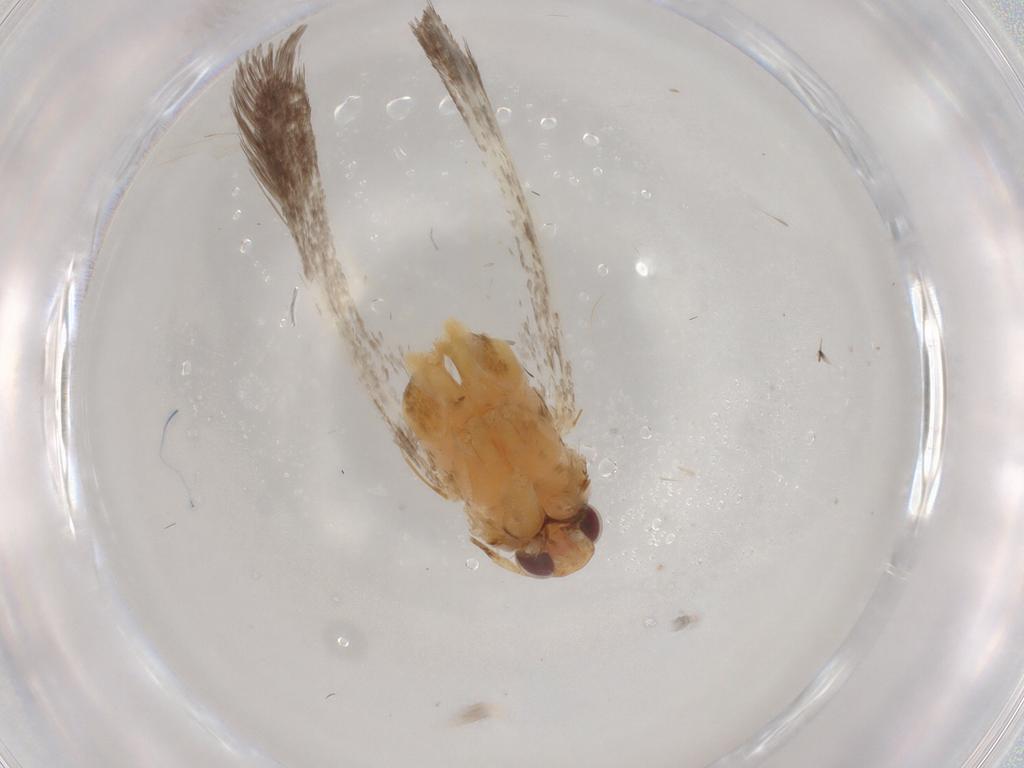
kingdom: Animalia
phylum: Arthropoda
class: Insecta
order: Lepidoptera
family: Gelechiidae
